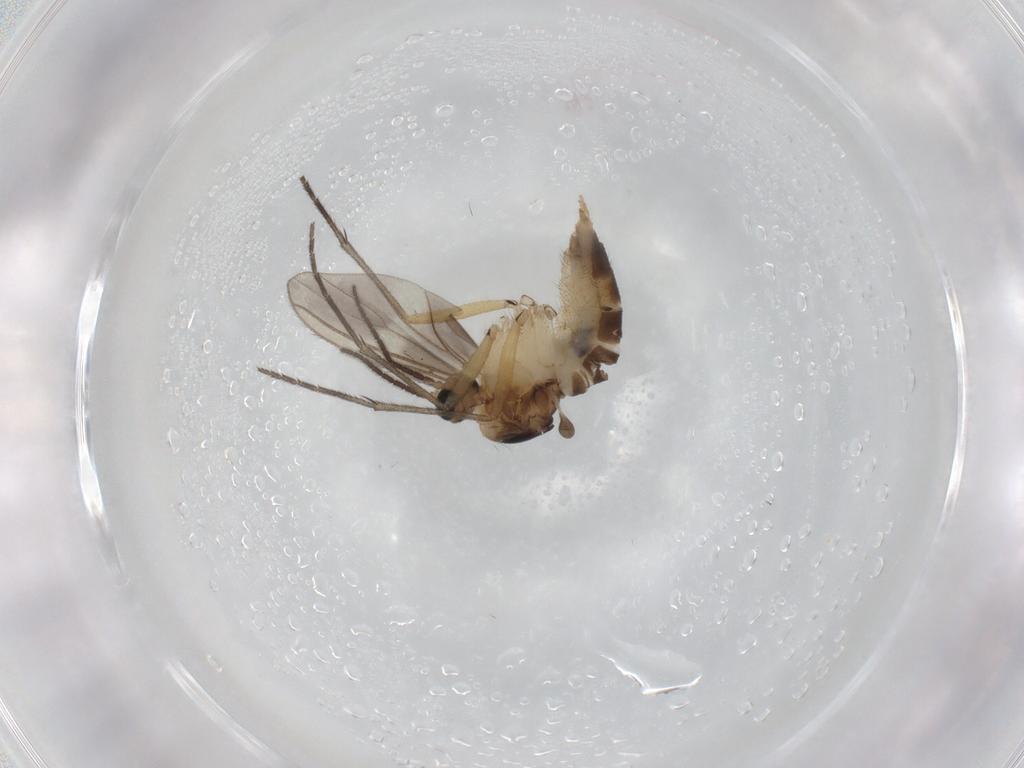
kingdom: Animalia
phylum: Arthropoda
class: Insecta
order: Diptera
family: Sciaridae
